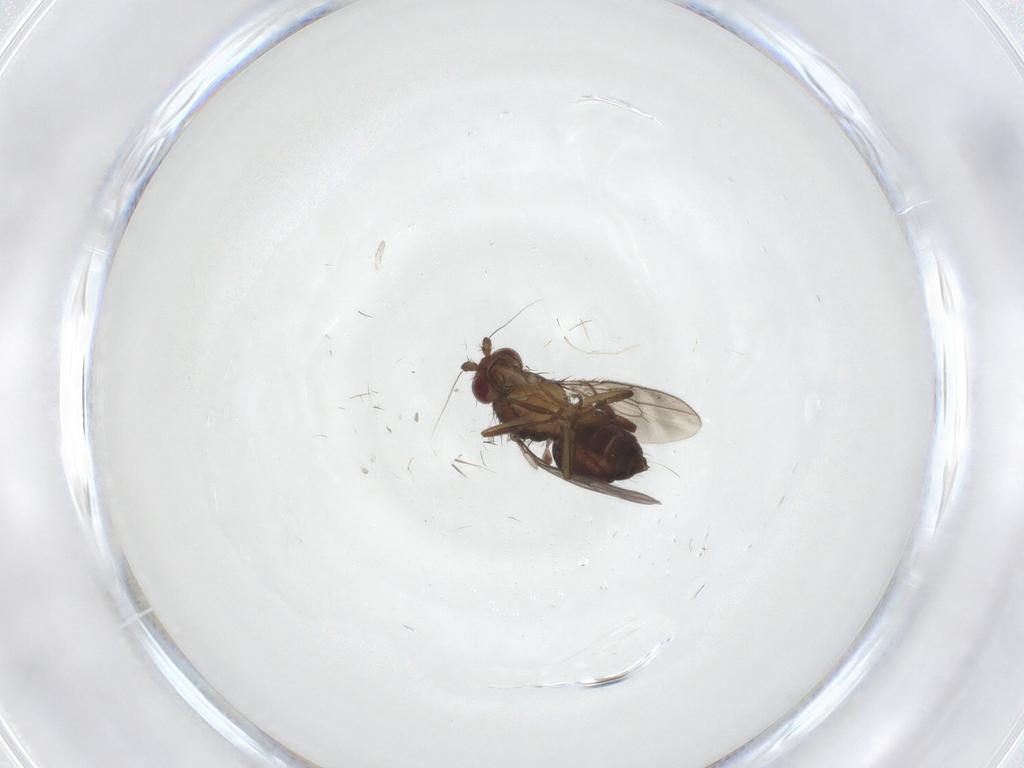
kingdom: Animalia
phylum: Arthropoda
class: Insecta
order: Diptera
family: Sphaeroceridae
